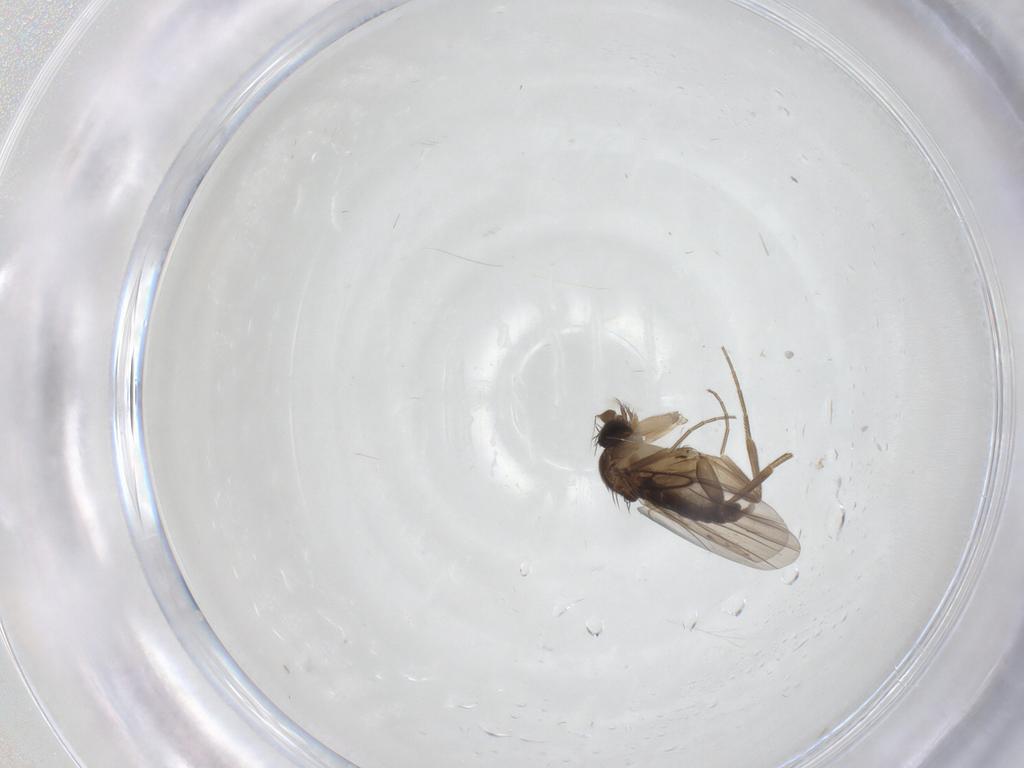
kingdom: Animalia
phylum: Arthropoda
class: Insecta
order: Diptera
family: Phoridae
